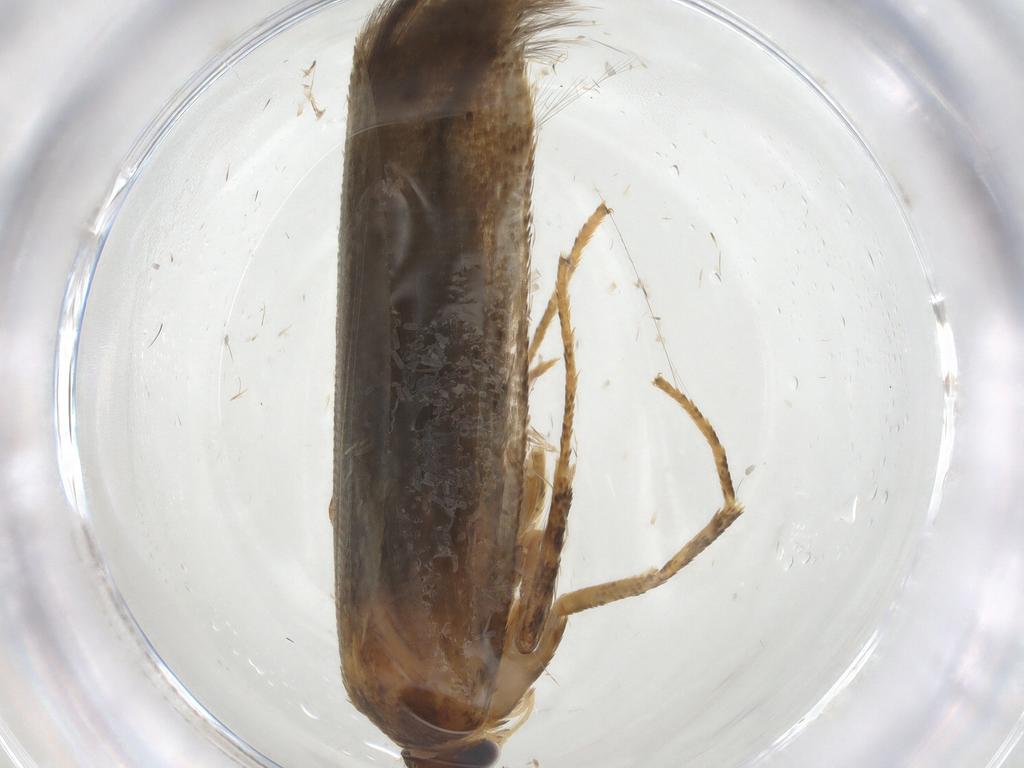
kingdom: Animalia
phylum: Arthropoda
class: Insecta
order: Lepidoptera
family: Blastobasidae
